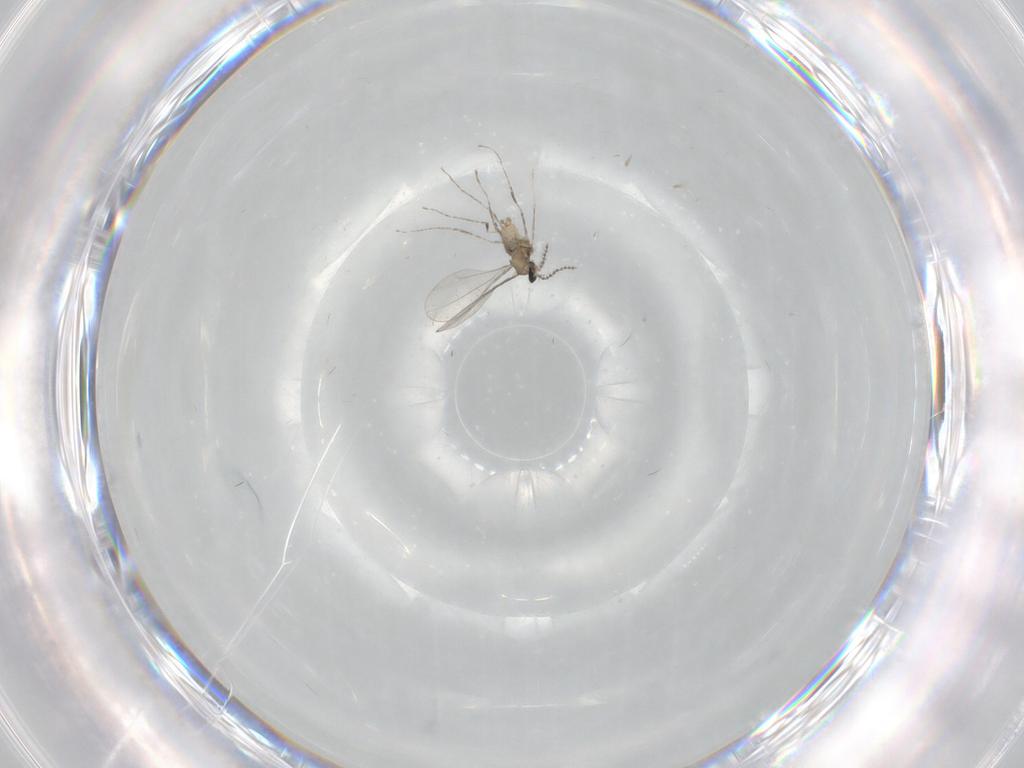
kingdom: Animalia
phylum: Arthropoda
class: Insecta
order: Diptera
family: Cecidomyiidae
